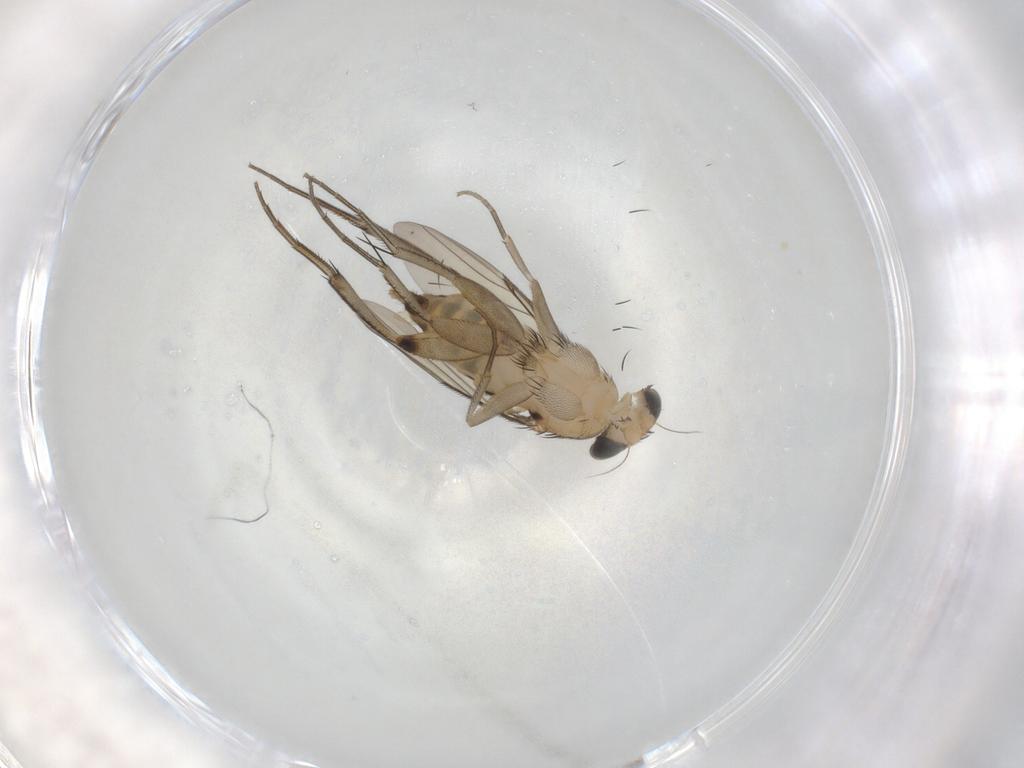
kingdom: Animalia
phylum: Arthropoda
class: Insecta
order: Diptera
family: Phoridae
